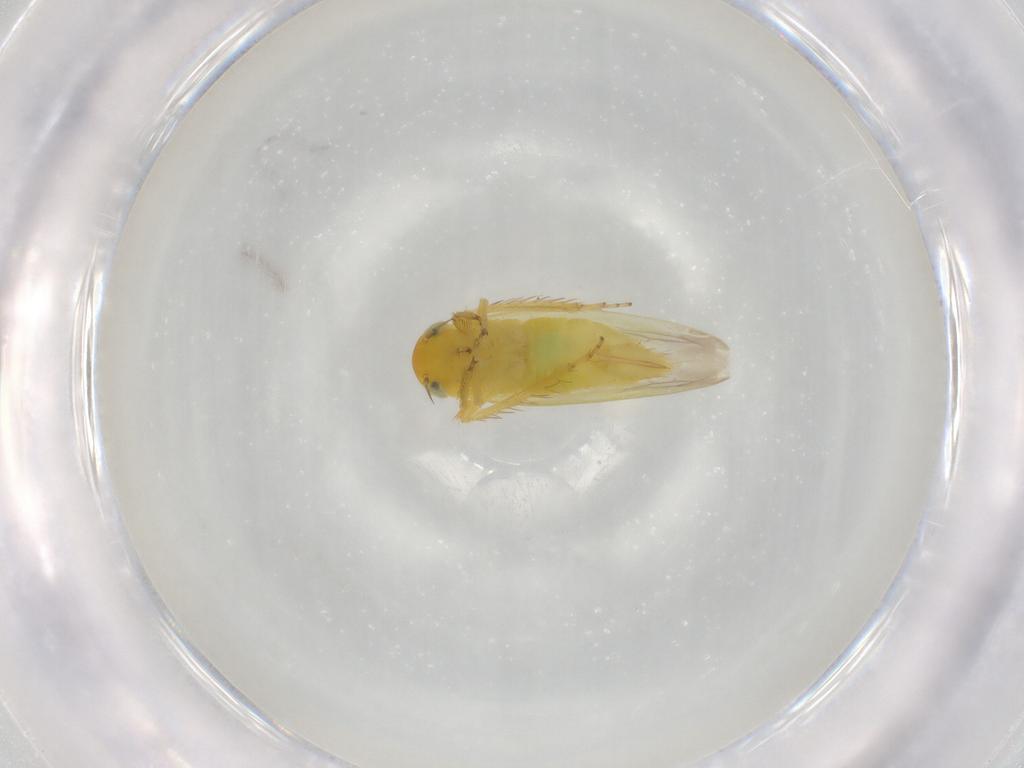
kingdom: Animalia
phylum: Arthropoda
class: Insecta
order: Hemiptera
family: Cicadellidae
